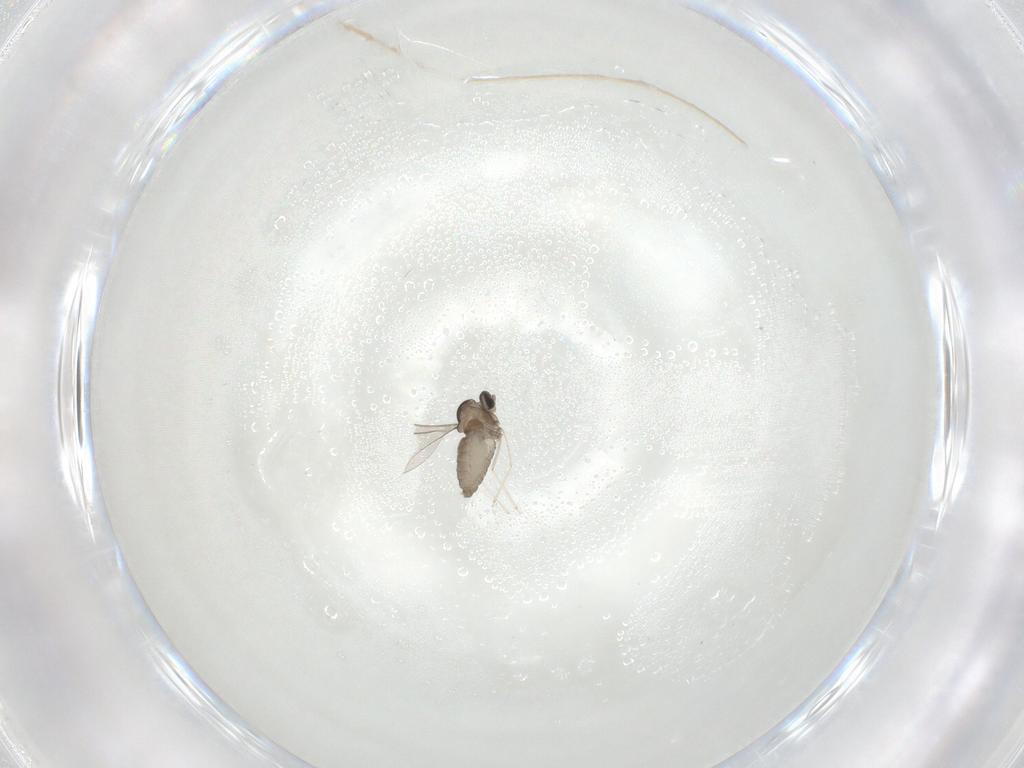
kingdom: Animalia
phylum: Arthropoda
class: Insecta
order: Diptera
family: Cecidomyiidae
